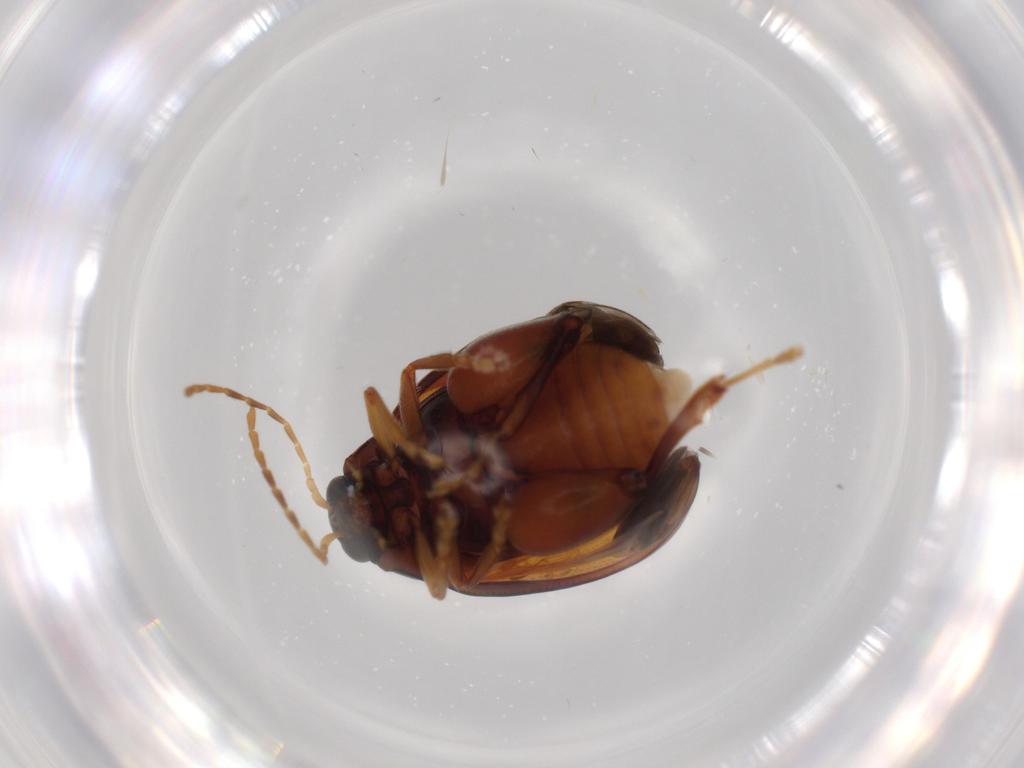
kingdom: Animalia
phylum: Arthropoda
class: Insecta
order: Coleoptera
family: Chrysomelidae
